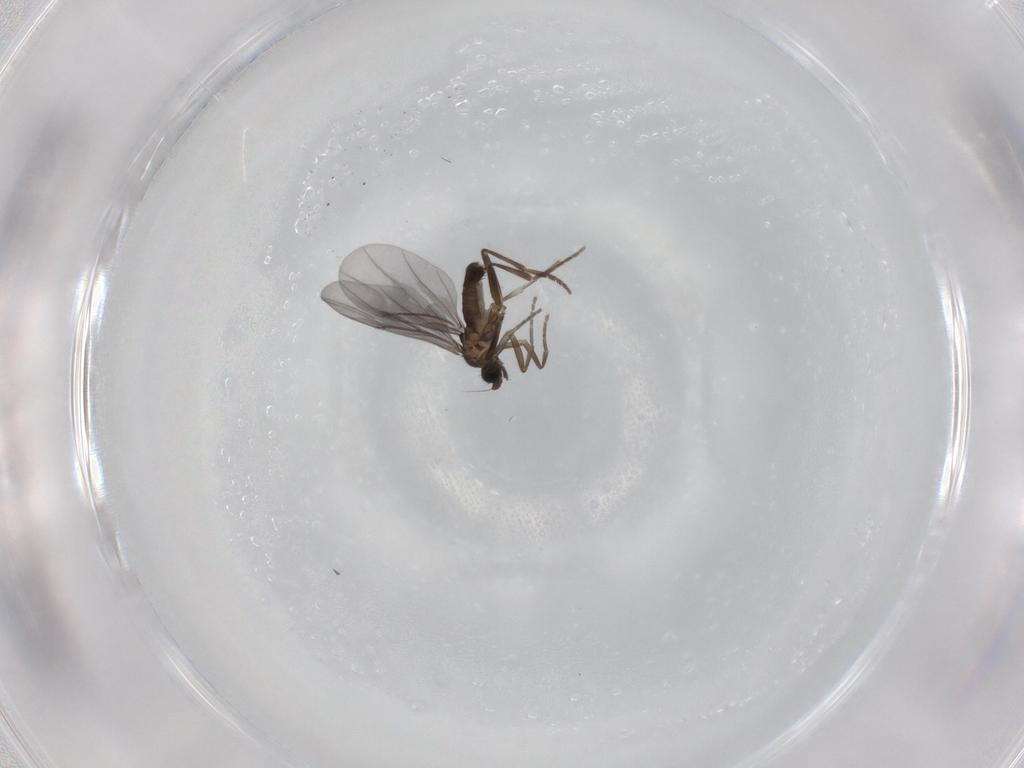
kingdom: Animalia
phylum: Arthropoda
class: Insecta
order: Diptera
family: Phoridae
